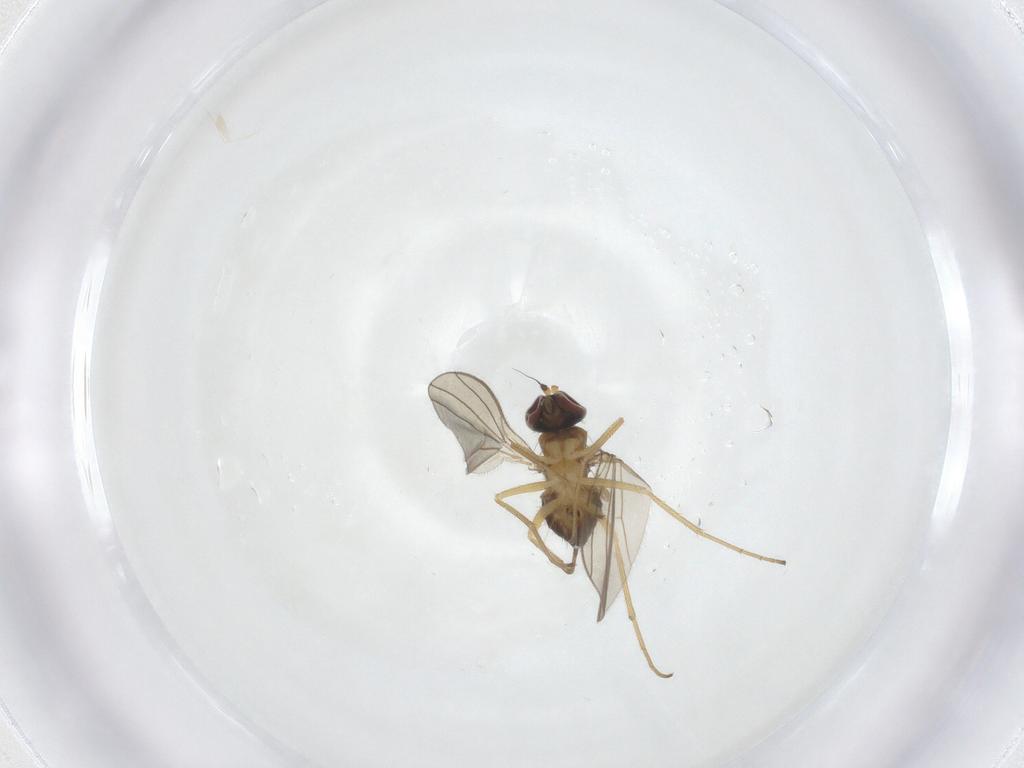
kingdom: Animalia
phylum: Arthropoda
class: Insecta
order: Diptera
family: Dolichopodidae
